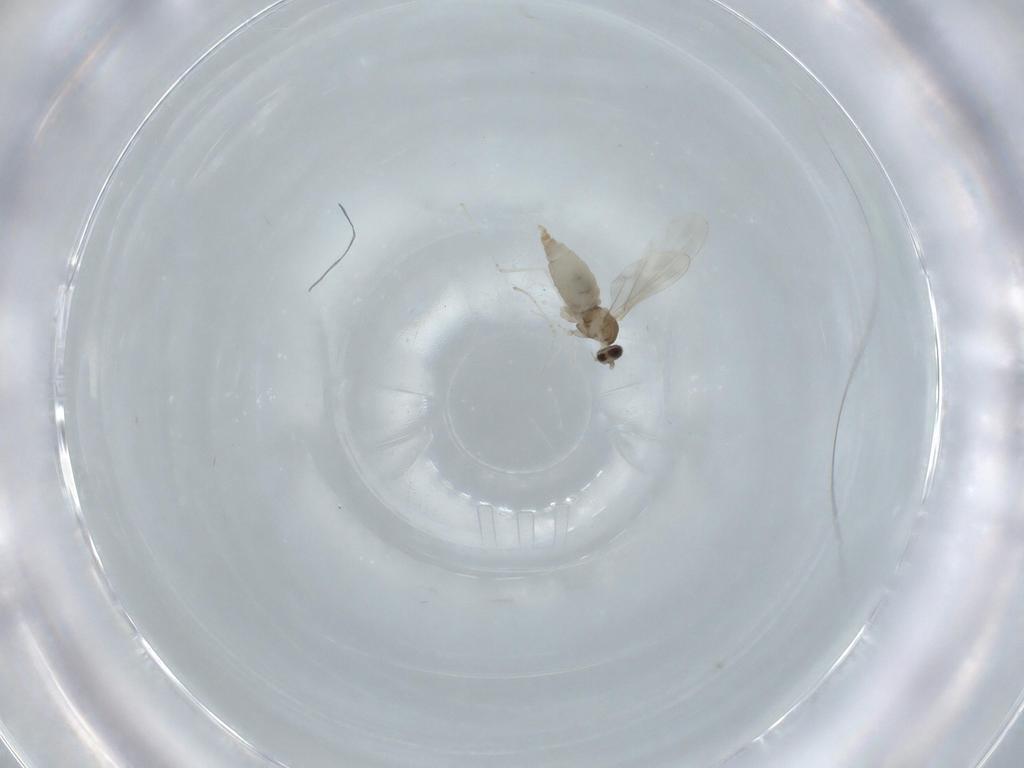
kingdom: Animalia
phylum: Arthropoda
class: Insecta
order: Diptera
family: Cecidomyiidae
